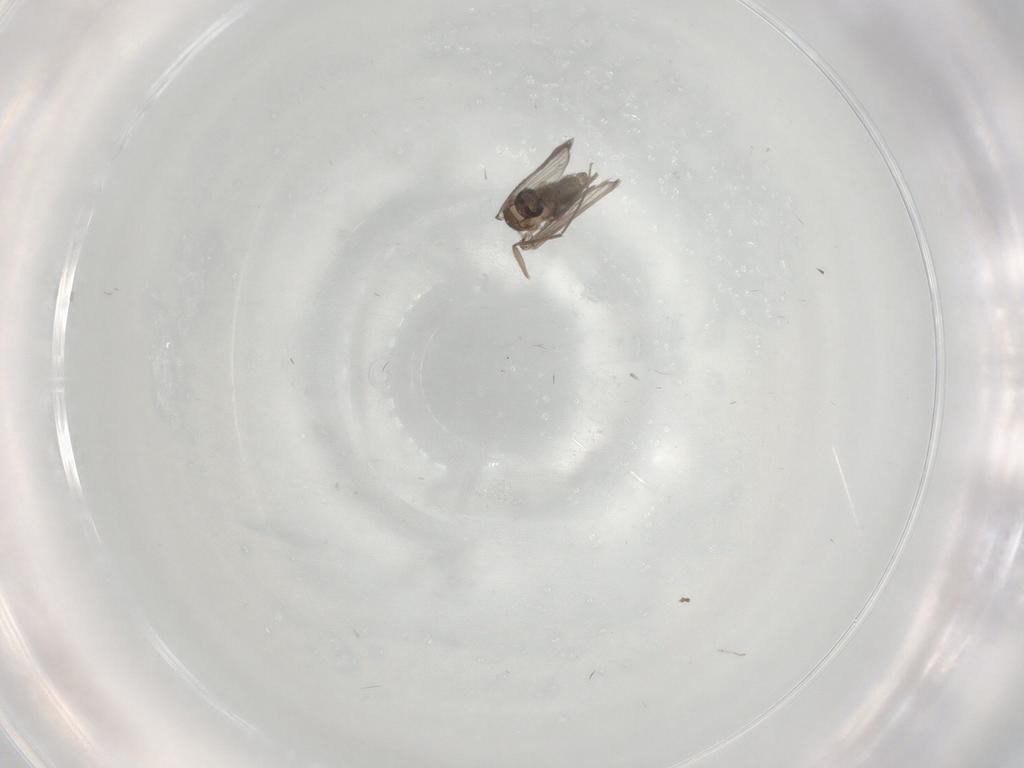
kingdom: Animalia
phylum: Arthropoda
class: Insecta
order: Diptera
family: Psychodidae
